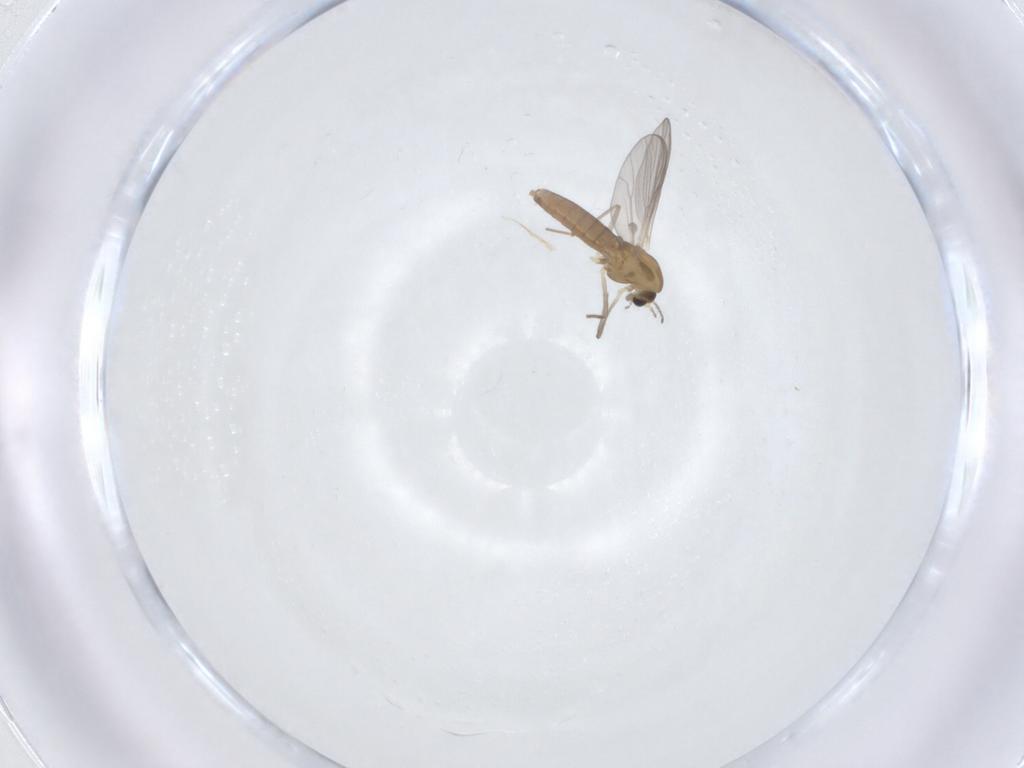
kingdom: Animalia
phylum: Arthropoda
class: Insecta
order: Diptera
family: Chironomidae
